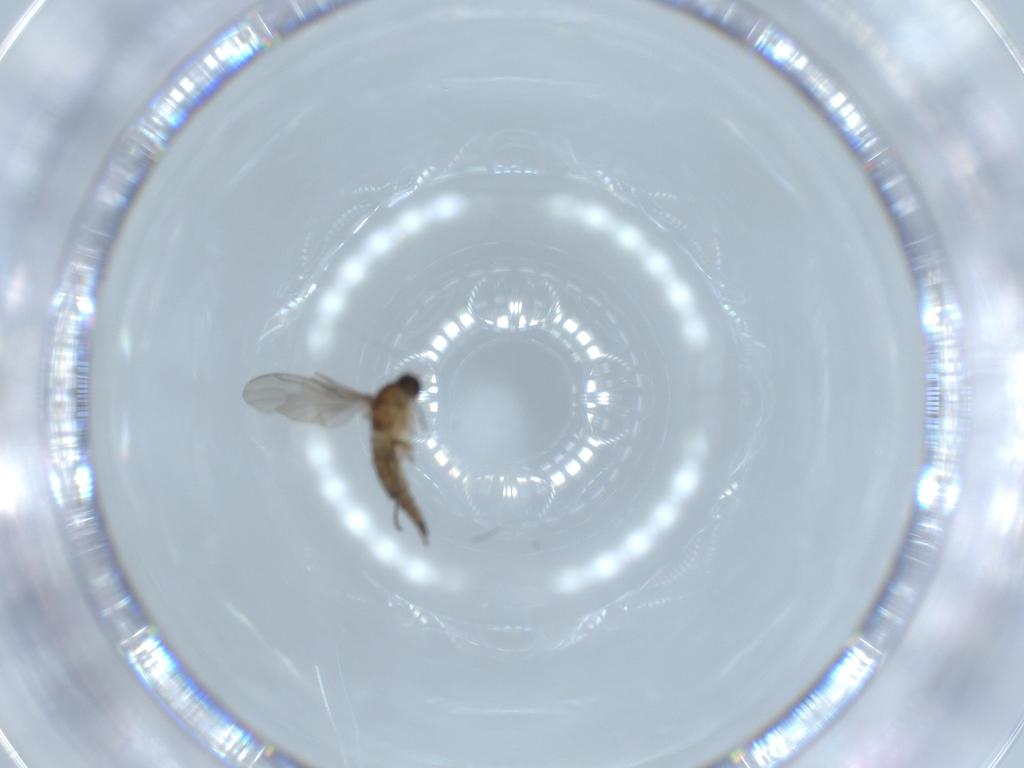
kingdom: Animalia
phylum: Arthropoda
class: Insecta
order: Diptera
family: Sciaridae
